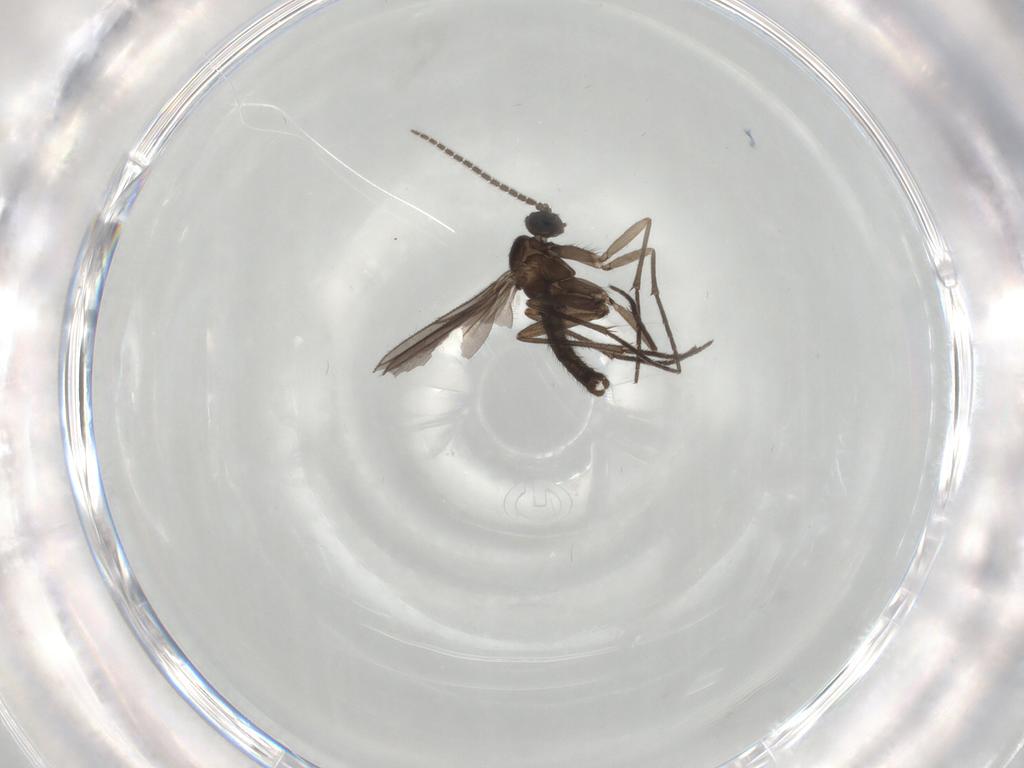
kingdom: Animalia
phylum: Arthropoda
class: Insecta
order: Diptera
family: Sciaridae
